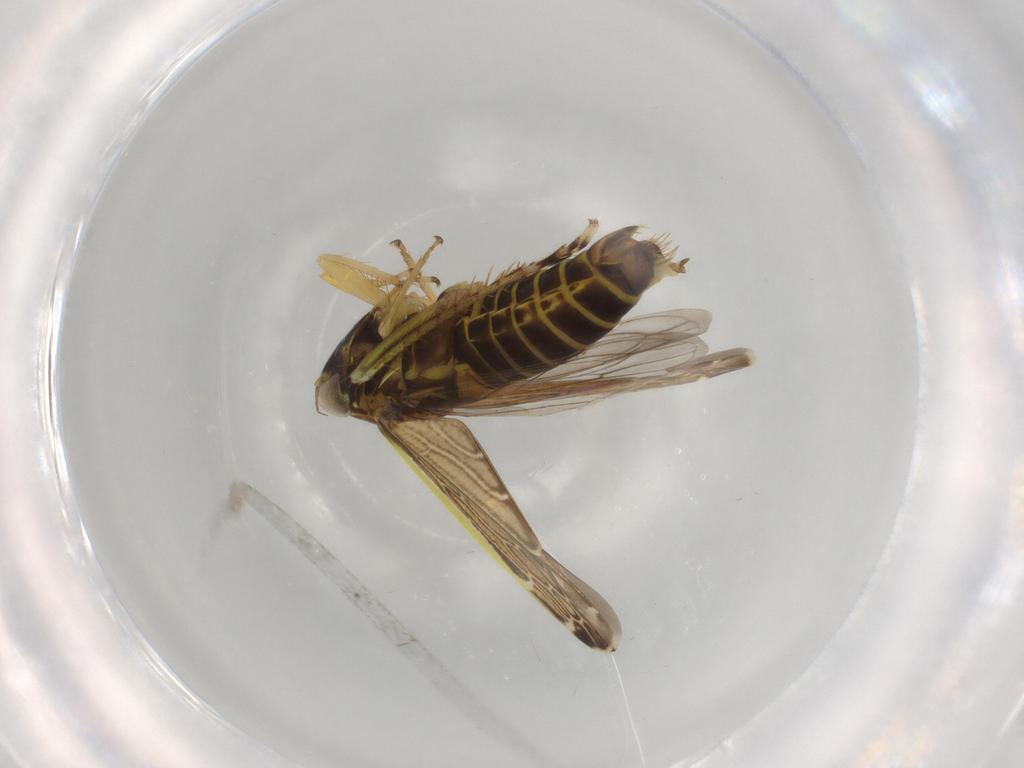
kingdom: Animalia
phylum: Arthropoda
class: Insecta
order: Hemiptera
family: Cicadellidae
